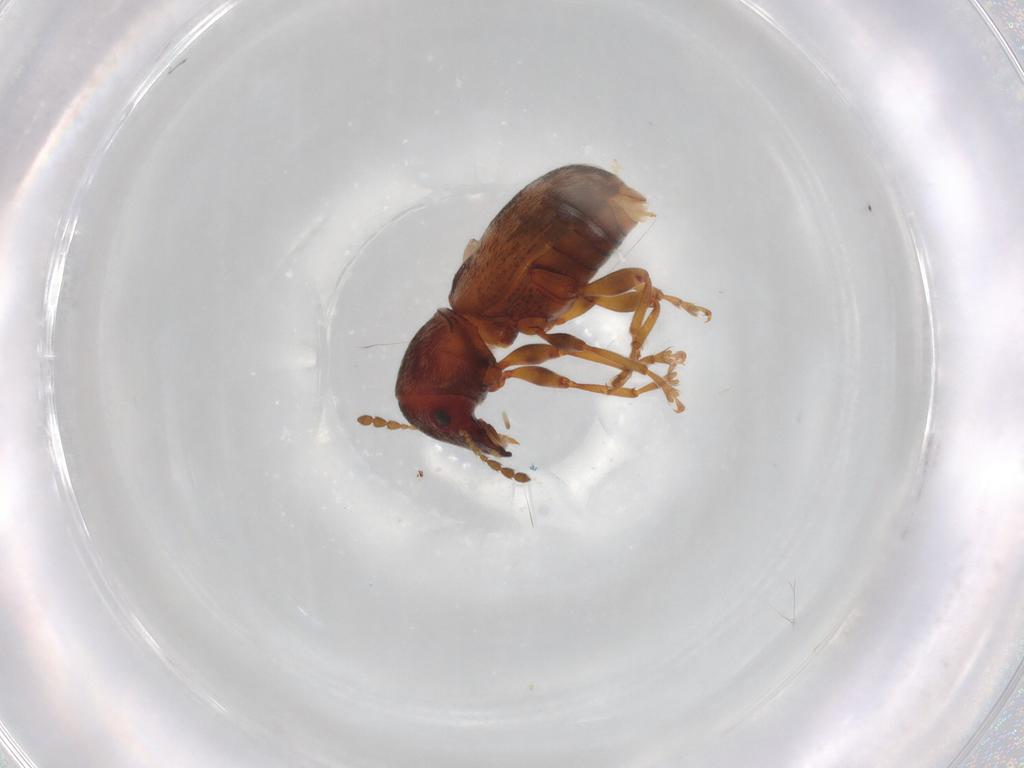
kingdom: Animalia
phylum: Arthropoda
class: Insecta
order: Coleoptera
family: Anthribidae
